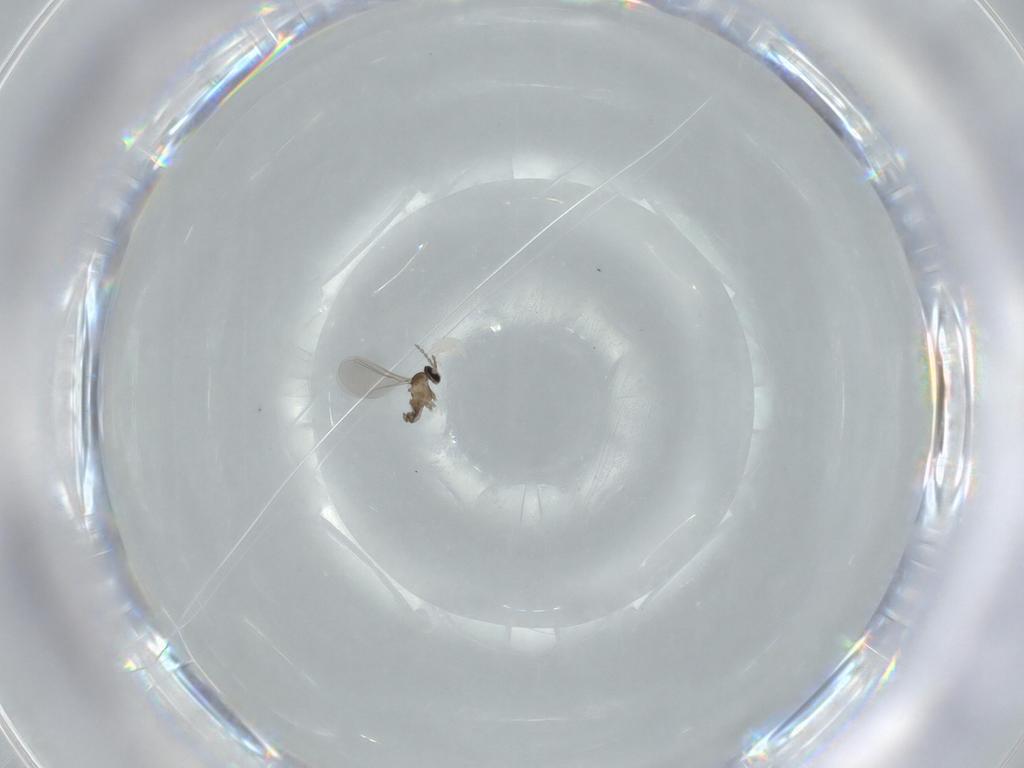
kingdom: Animalia
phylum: Arthropoda
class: Insecta
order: Diptera
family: Cecidomyiidae
